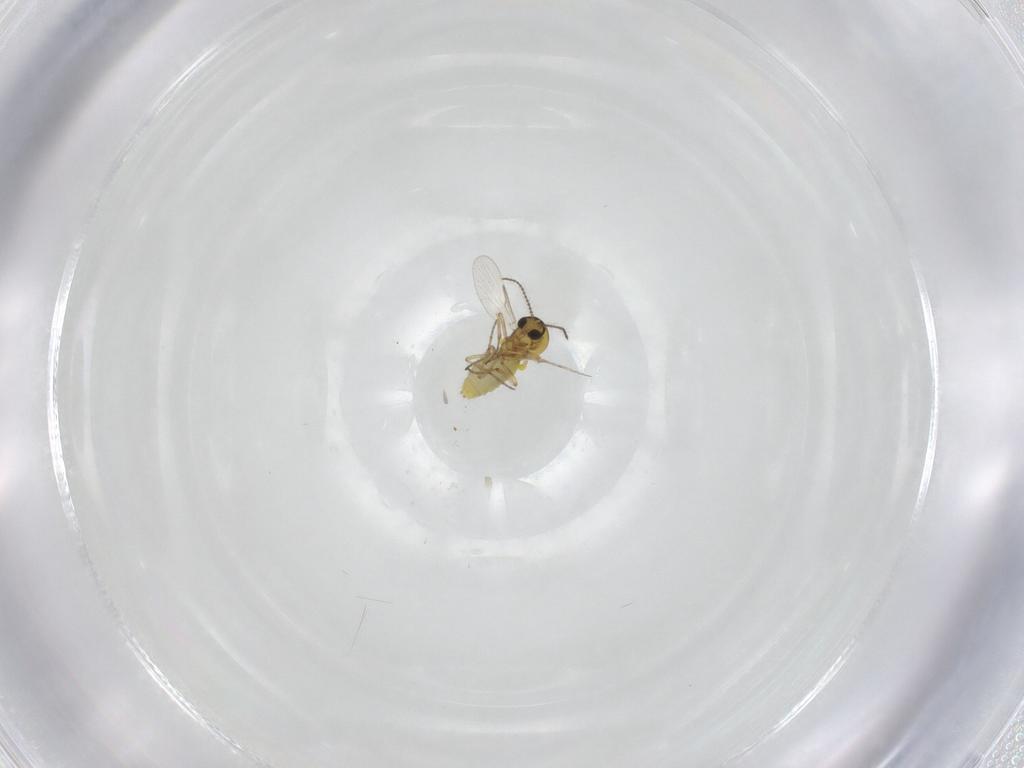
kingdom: Animalia
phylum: Arthropoda
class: Insecta
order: Diptera
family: Ceratopogonidae
